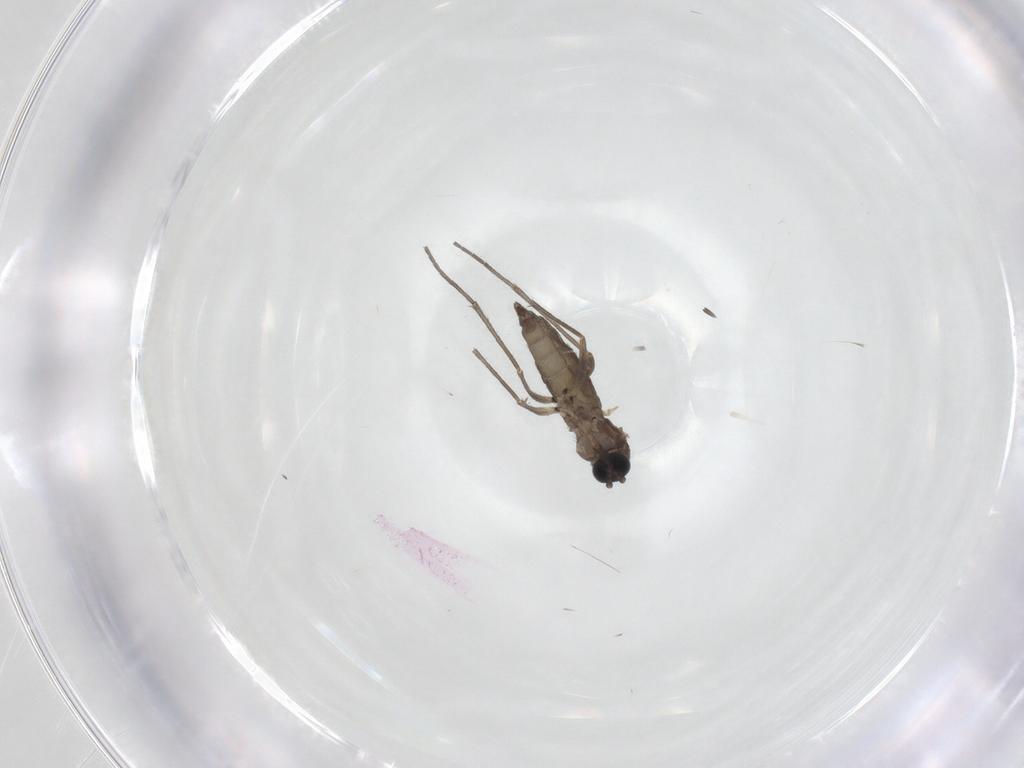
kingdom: Animalia
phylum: Arthropoda
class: Insecta
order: Diptera
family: Sciaridae
